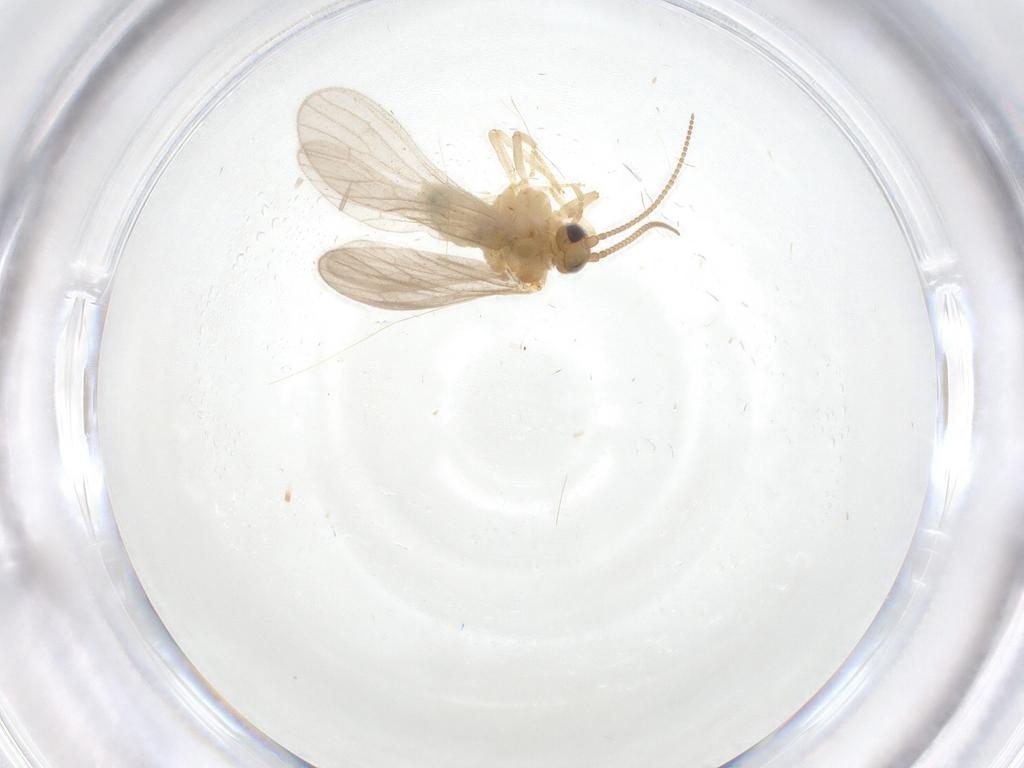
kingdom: Animalia
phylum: Arthropoda
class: Insecta
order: Neuroptera
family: Coniopterygidae
